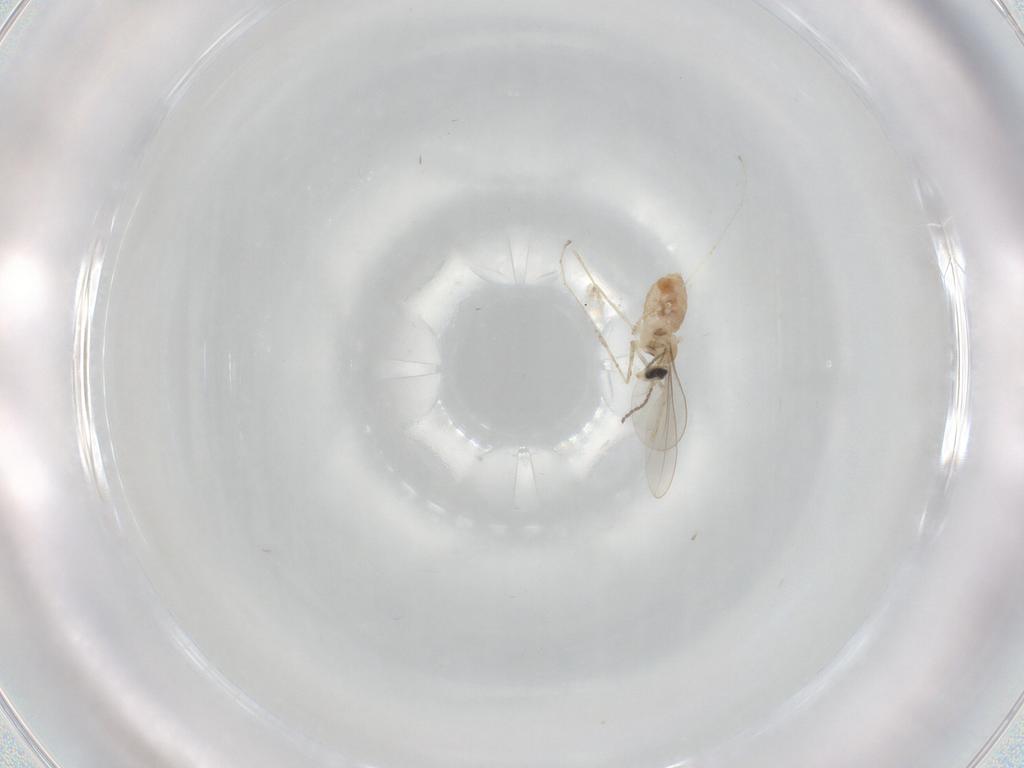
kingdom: Animalia
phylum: Arthropoda
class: Insecta
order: Diptera
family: Cecidomyiidae
